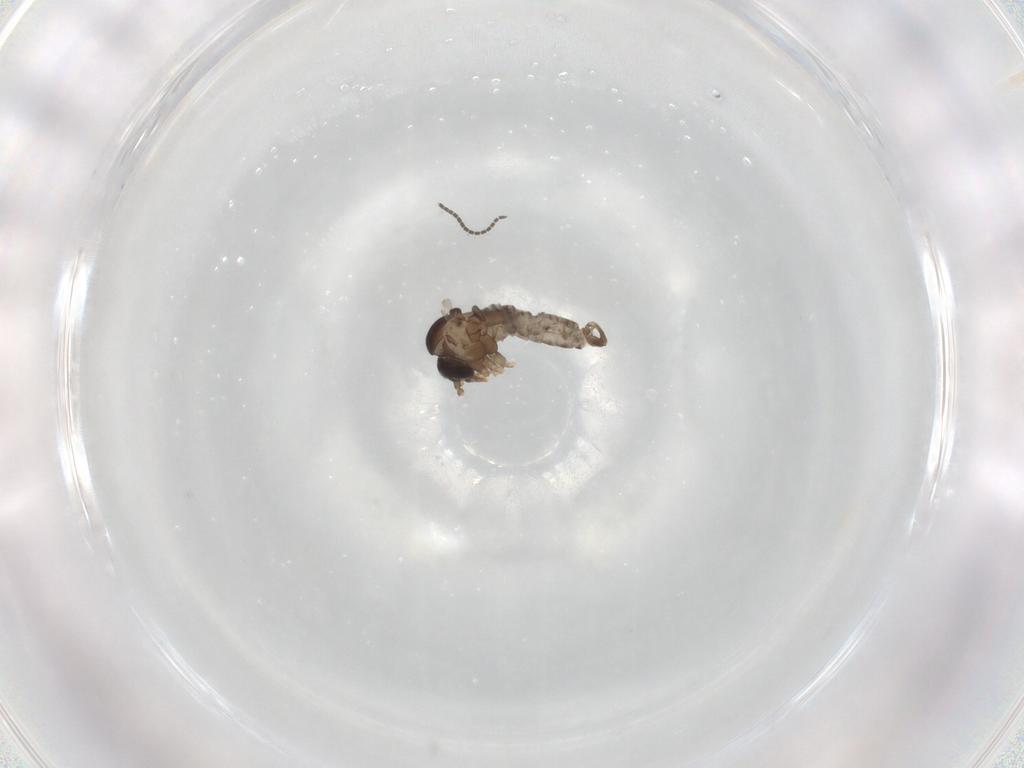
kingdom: Animalia
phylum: Arthropoda
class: Insecta
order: Diptera
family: Psychodidae
